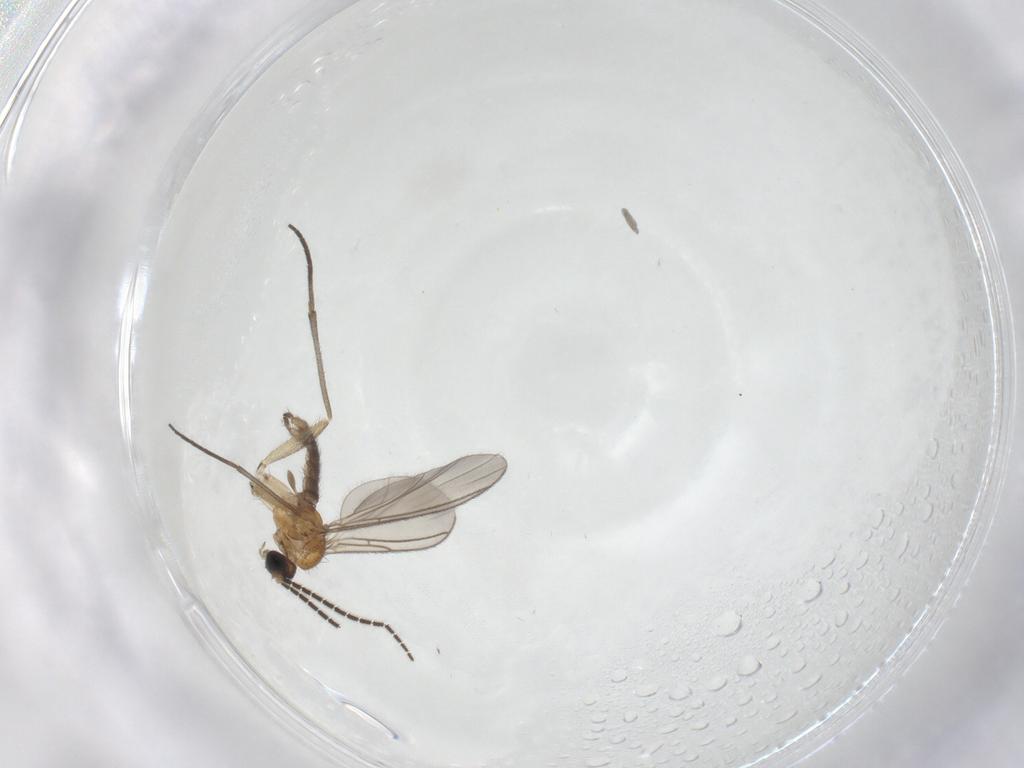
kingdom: Animalia
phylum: Arthropoda
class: Insecta
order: Diptera
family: Sciaridae
